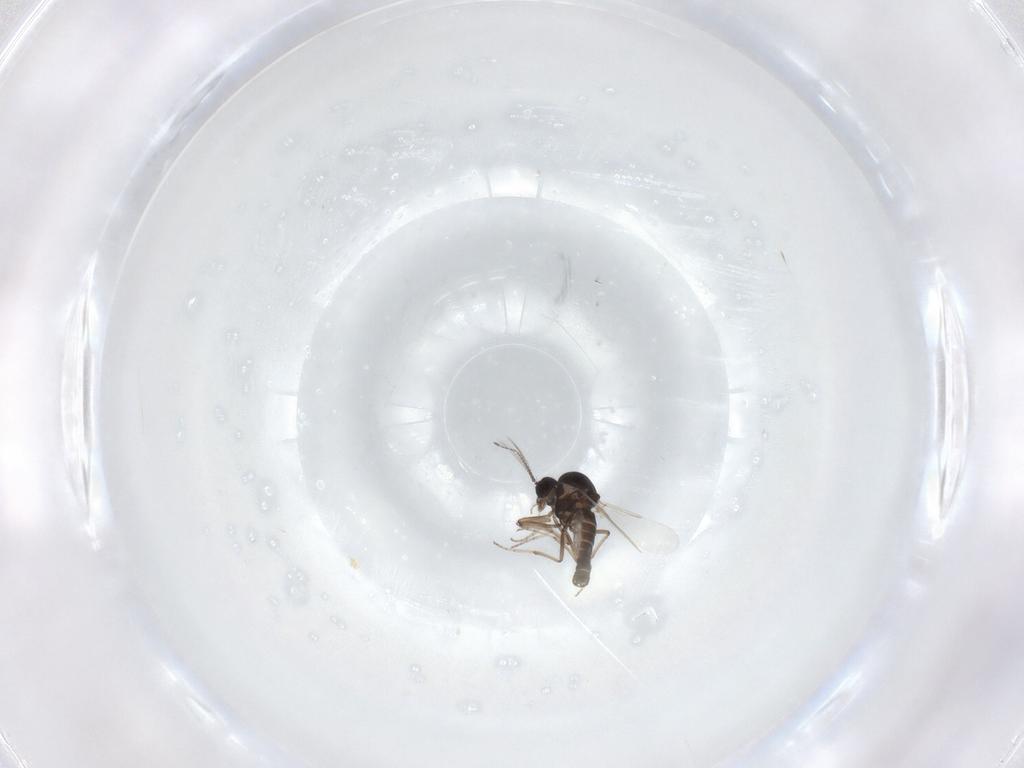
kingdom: Animalia
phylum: Arthropoda
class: Insecta
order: Diptera
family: Ceratopogonidae
